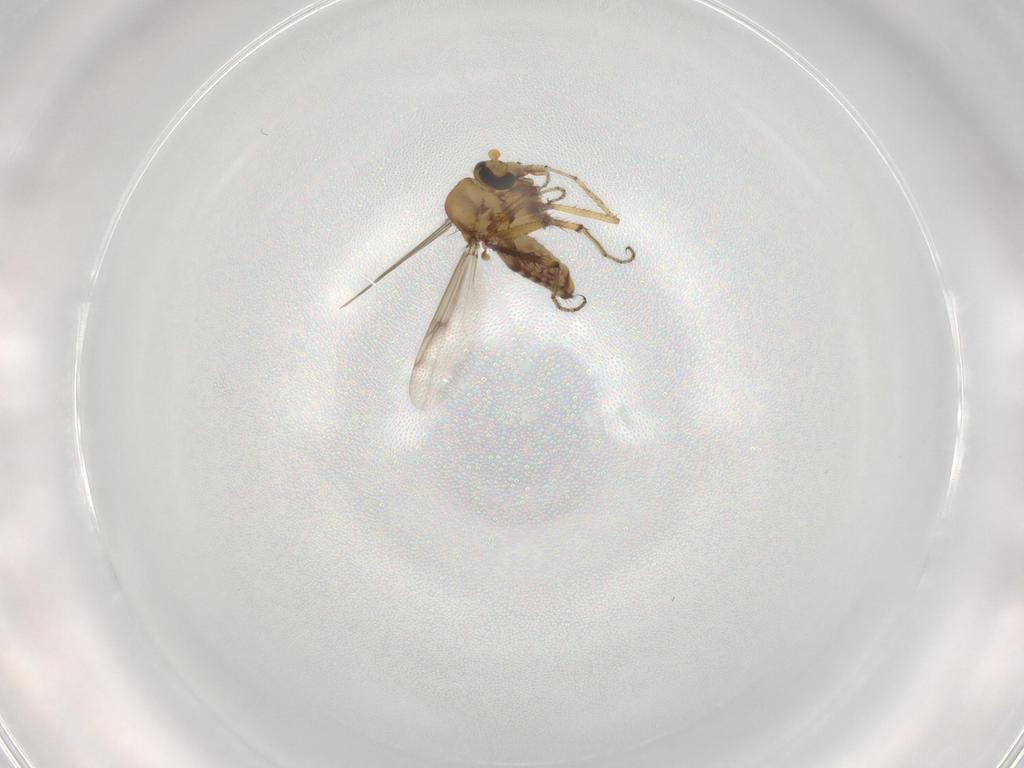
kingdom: Animalia
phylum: Arthropoda
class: Insecta
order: Diptera
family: Ceratopogonidae
